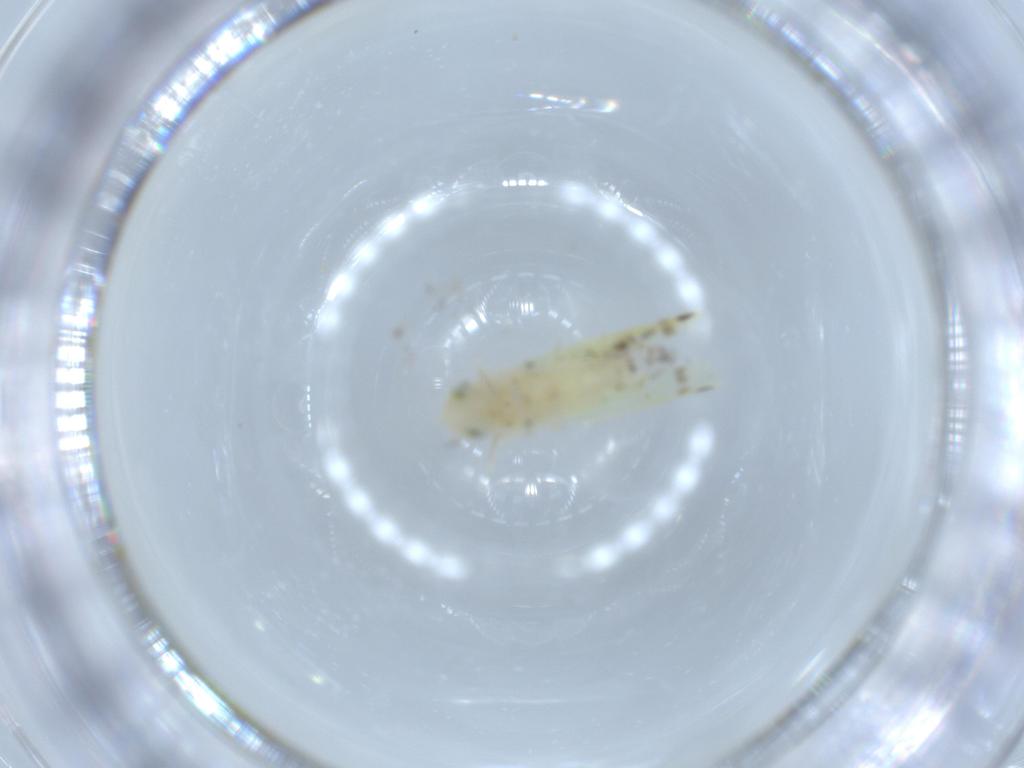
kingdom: Animalia
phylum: Arthropoda
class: Insecta
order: Hemiptera
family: Cicadellidae
